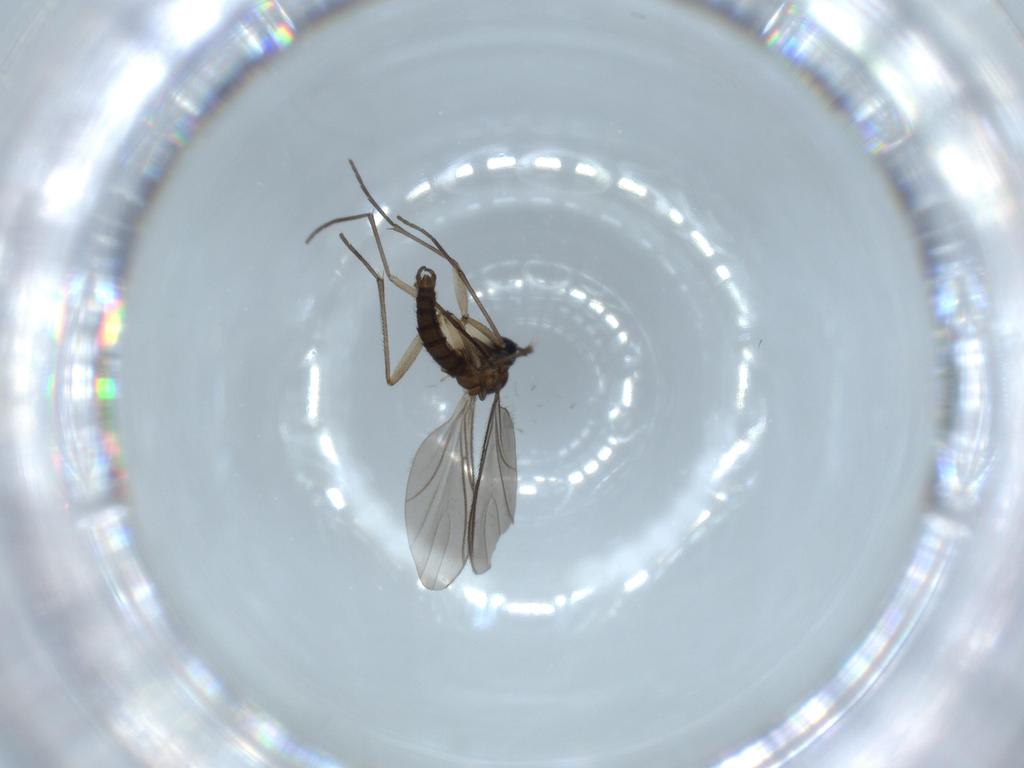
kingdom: Animalia
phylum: Arthropoda
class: Insecta
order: Diptera
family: Sciaridae
